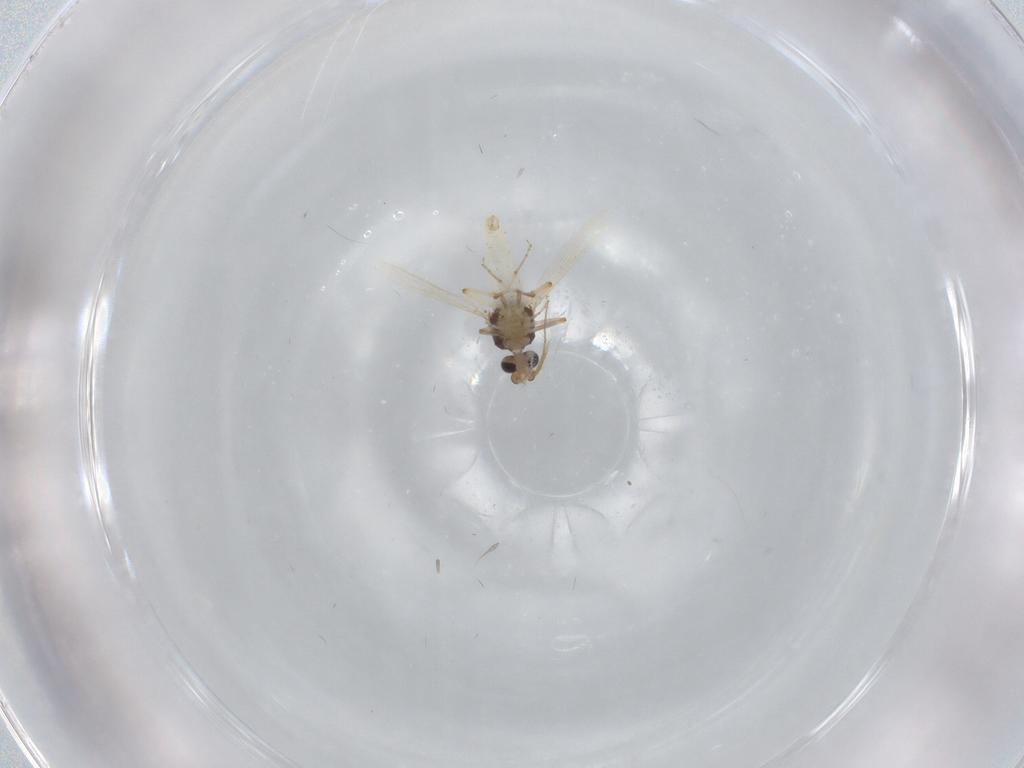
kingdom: Animalia
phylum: Arthropoda
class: Insecta
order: Diptera
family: Ceratopogonidae
